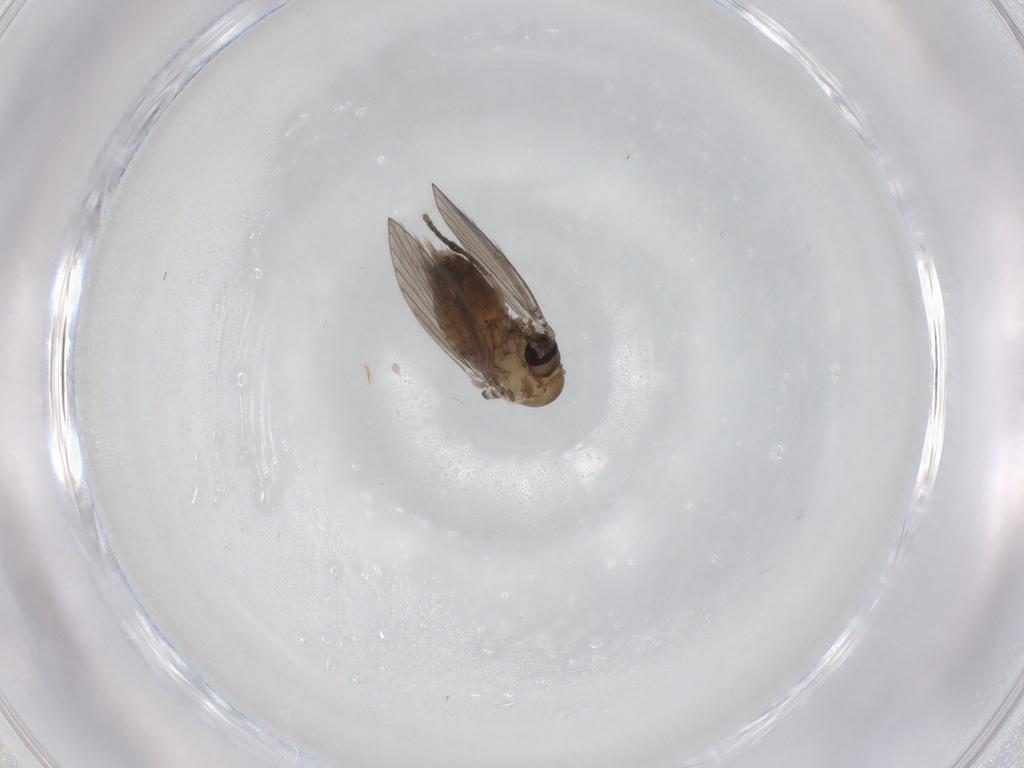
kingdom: Animalia
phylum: Arthropoda
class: Insecta
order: Diptera
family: Psychodidae
